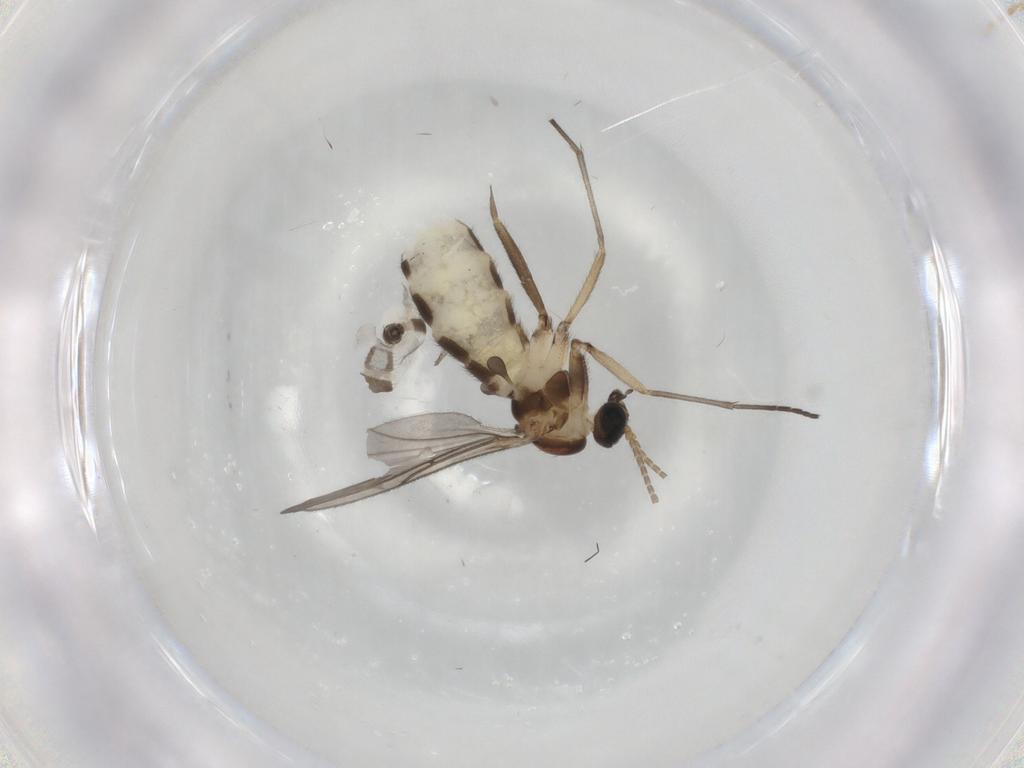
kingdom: Animalia
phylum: Arthropoda
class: Insecta
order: Diptera
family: Sciaridae
